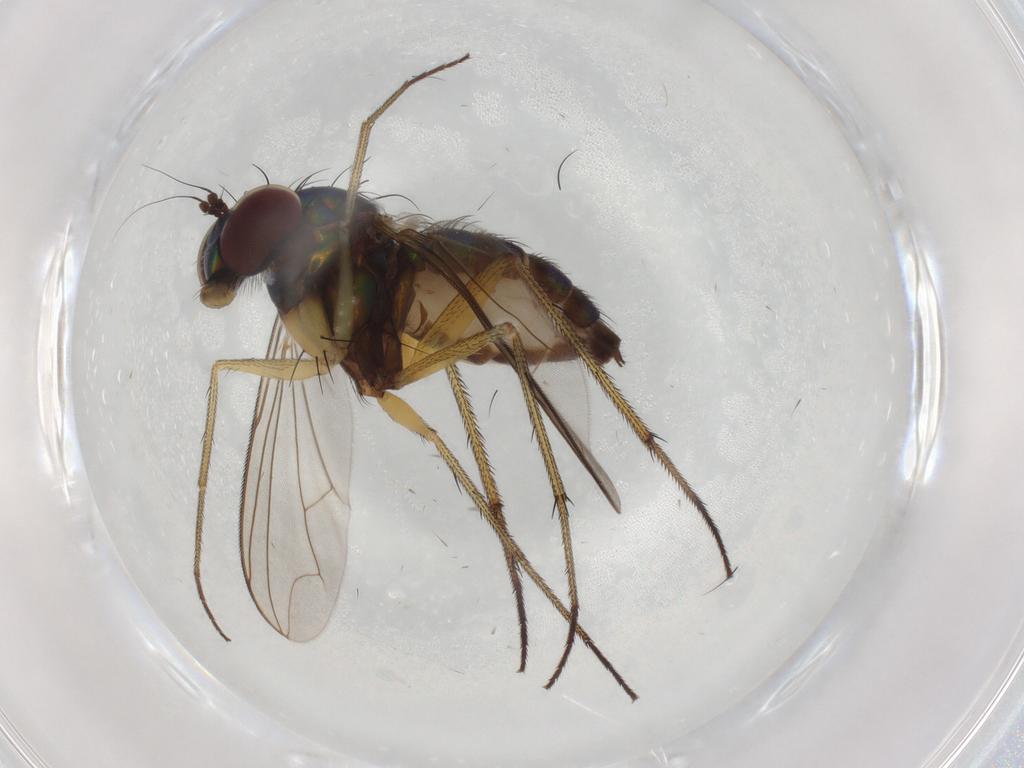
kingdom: Animalia
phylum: Arthropoda
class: Insecta
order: Diptera
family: Dolichopodidae
